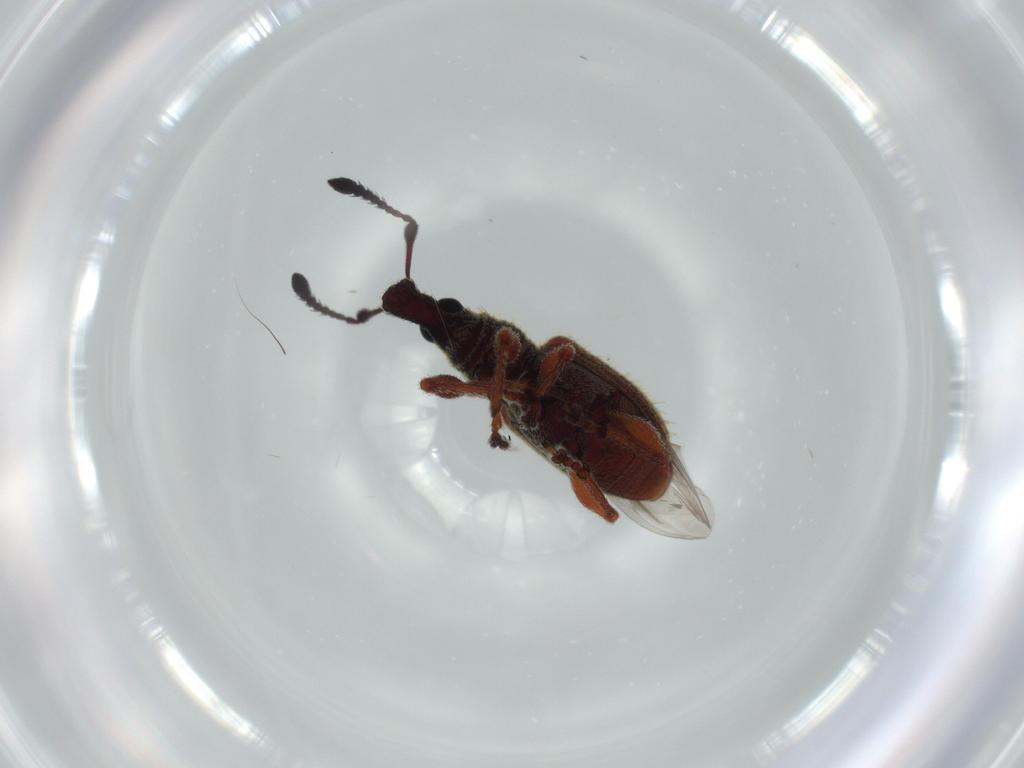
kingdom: Animalia
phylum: Arthropoda
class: Insecta
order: Coleoptera
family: Curculionidae
